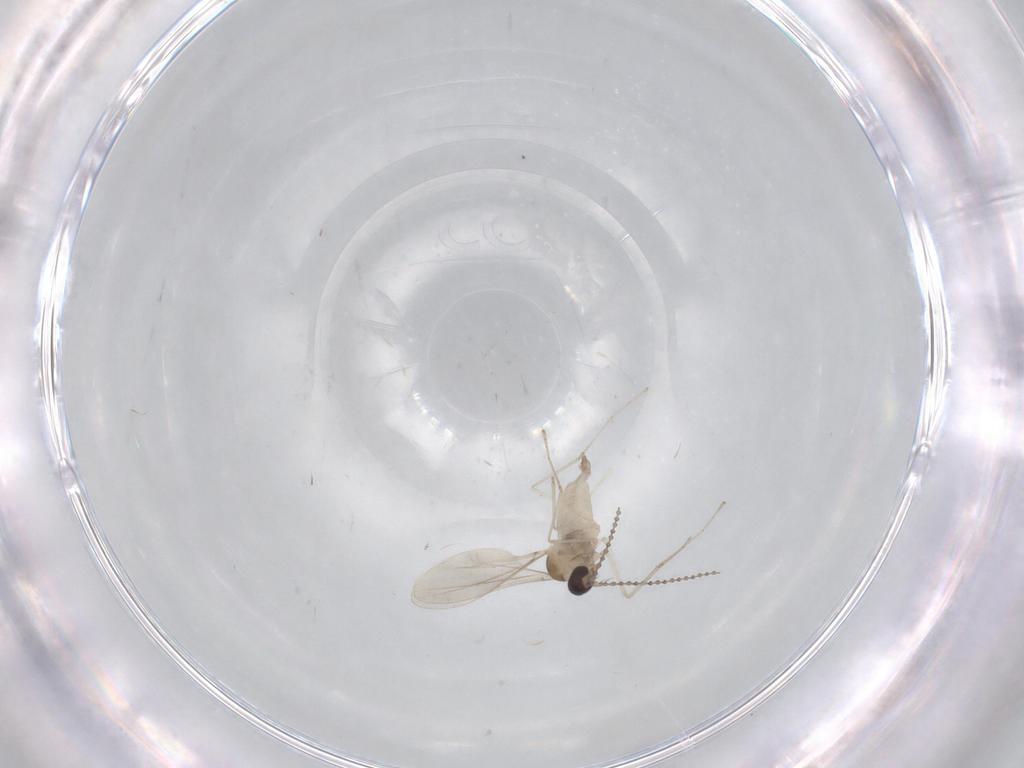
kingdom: Animalia
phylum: Arthropoda
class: Insecta
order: Diptera
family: Cecidomyiidae
